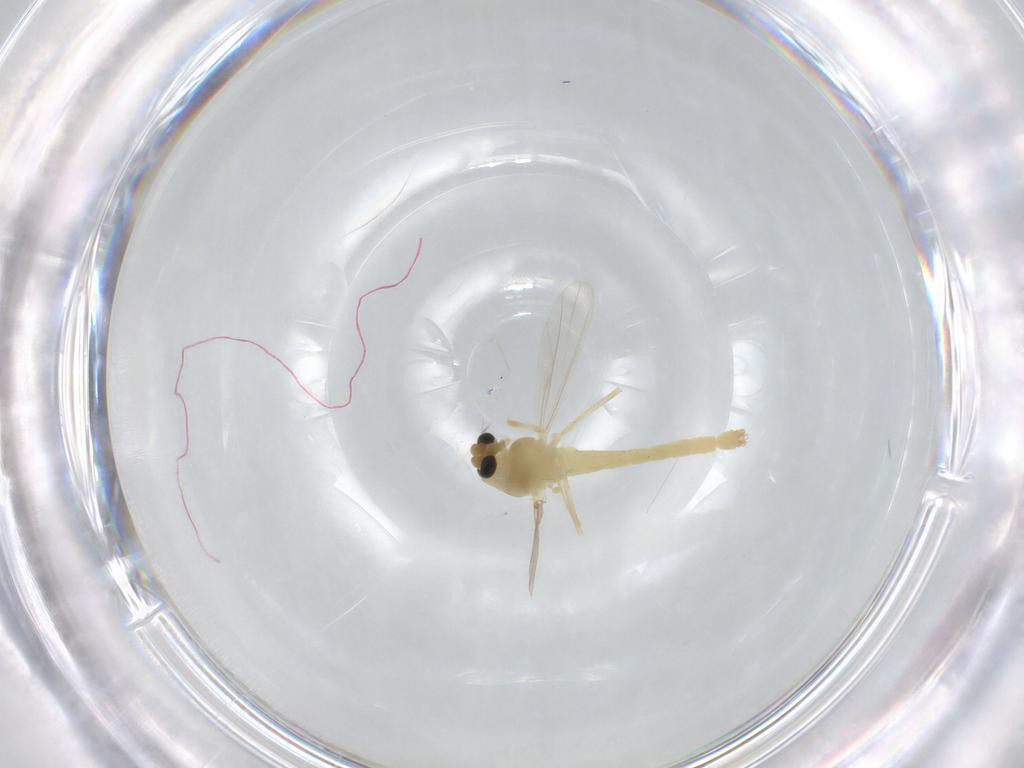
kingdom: Animalia
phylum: Arthropoda
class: Insecta
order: Diptera
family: Chironomidae
